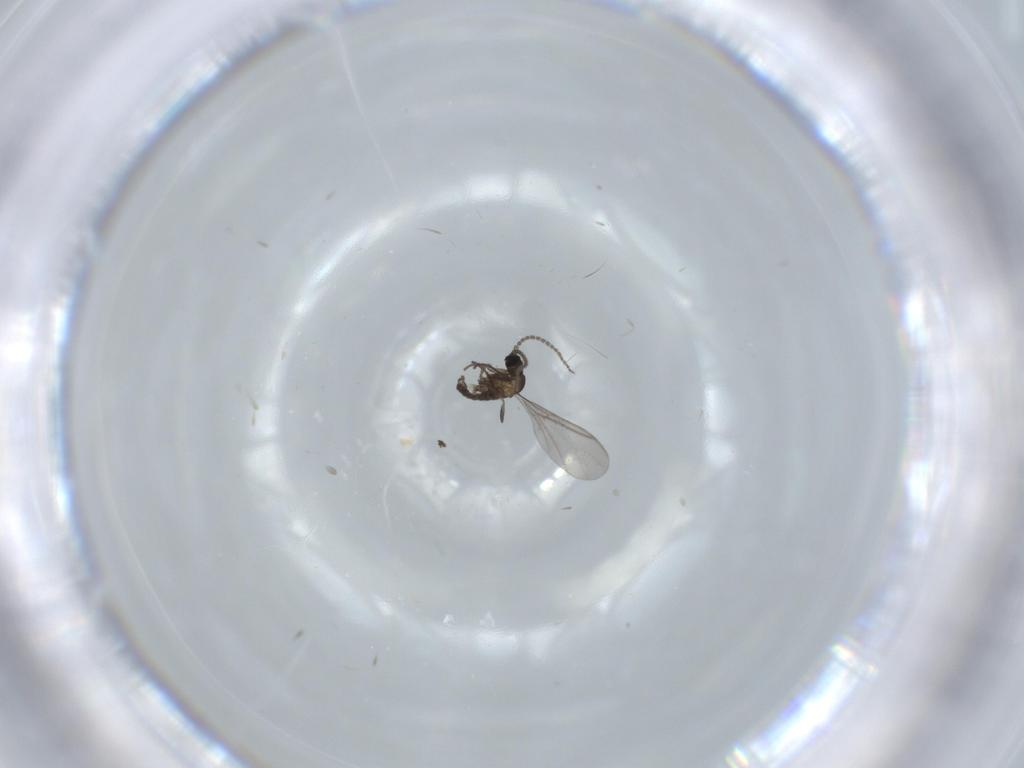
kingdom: Animalia
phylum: Arthropoda
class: Insecta
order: Diptera
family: Dolichopodidae
